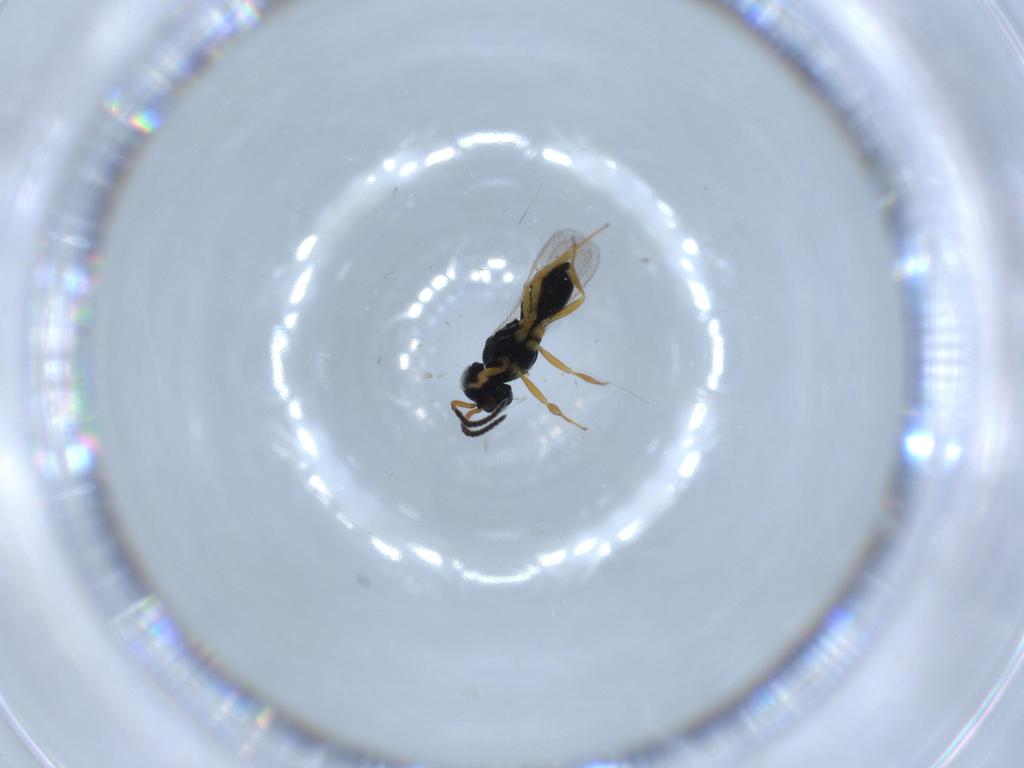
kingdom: Animalia
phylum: Arthropoda
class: Insecta
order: Hymenoptera
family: Scelionidae
